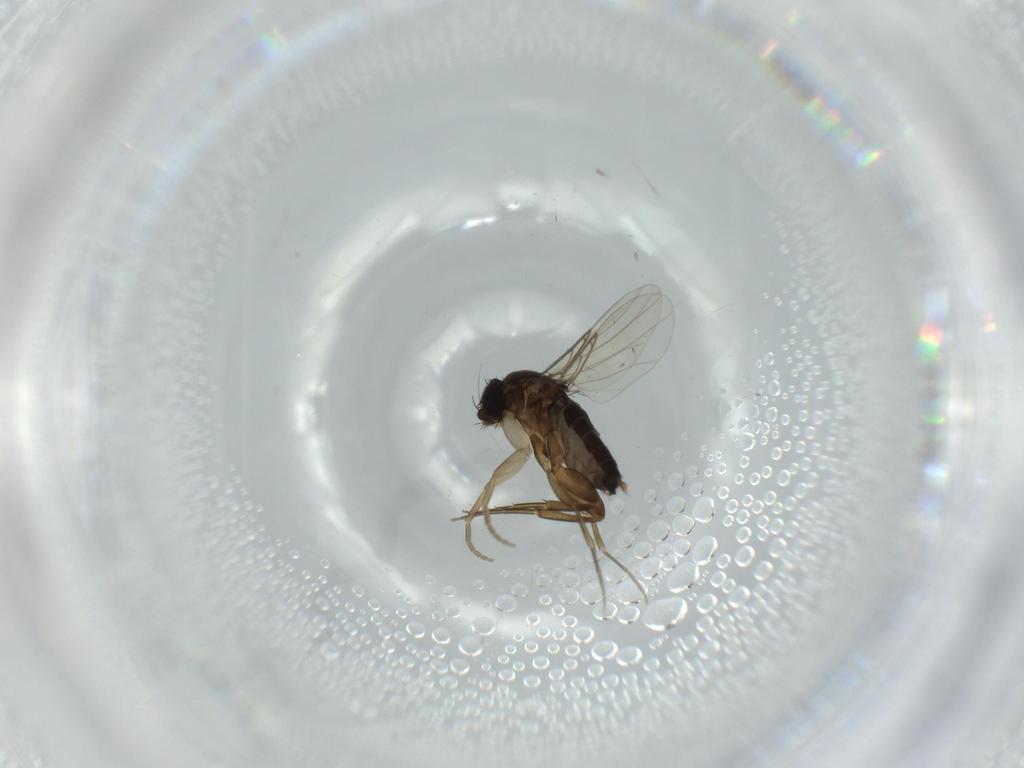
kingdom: Animalia
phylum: Arthropoda
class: Insecta
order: Diptera
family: Phoridae
